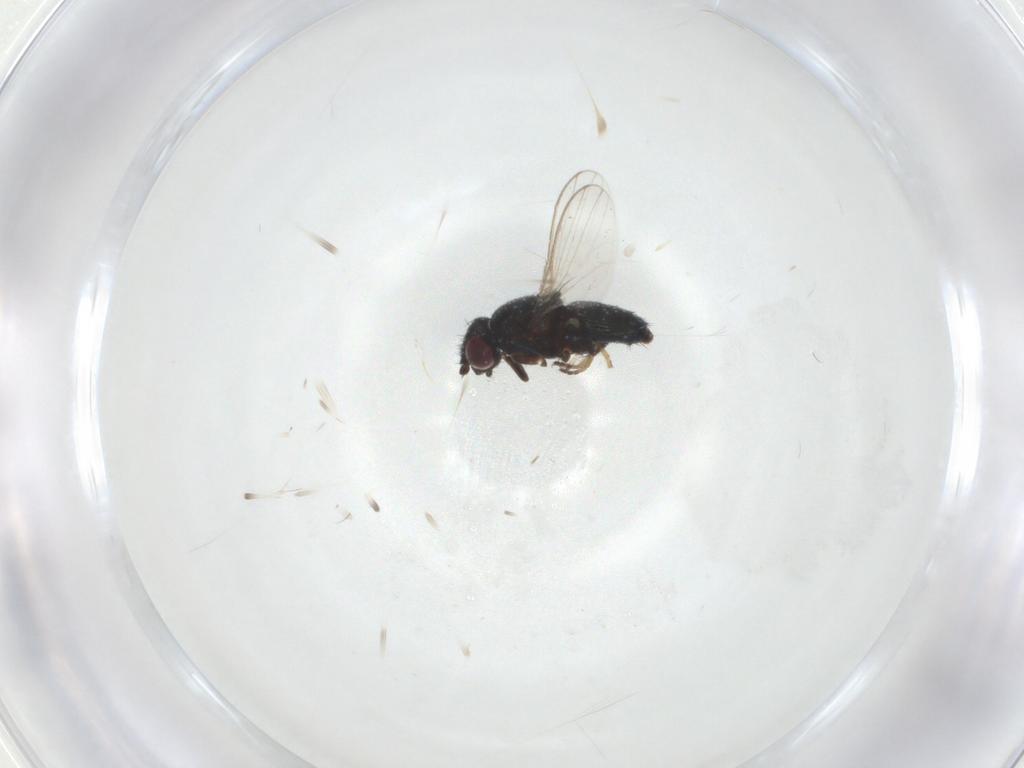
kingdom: Animalia
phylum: Arthropoda
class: Insecta
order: Diptera
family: Milichiidae
